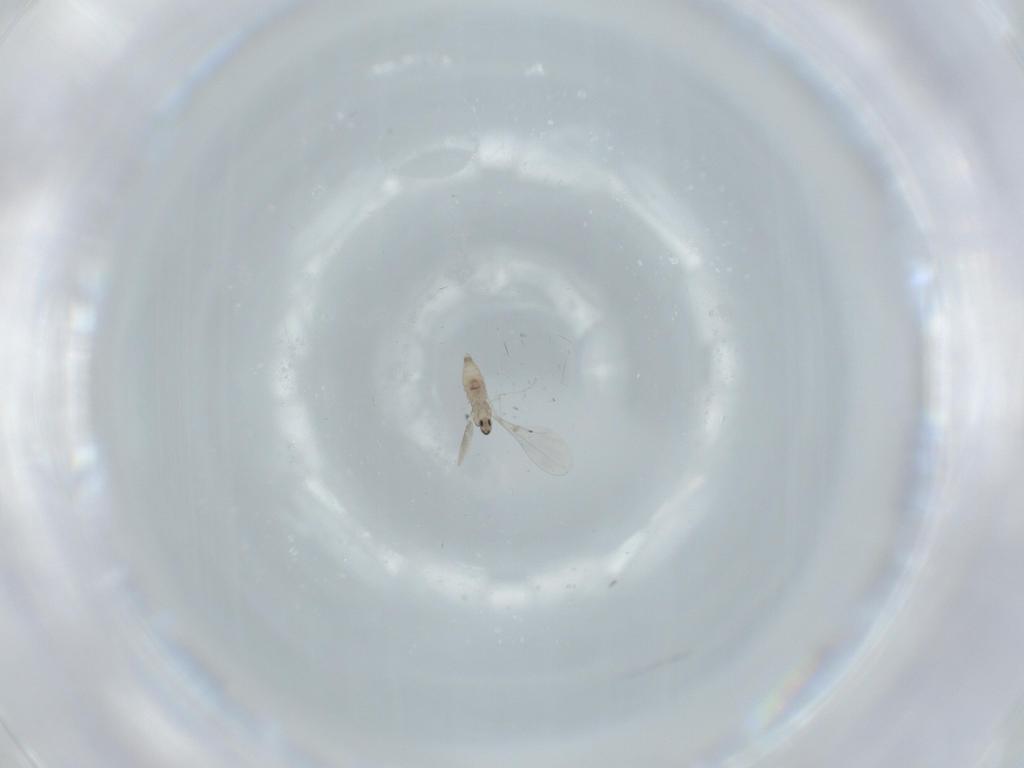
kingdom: Animalia
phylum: Arthropoda
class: Insecta
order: Diptera
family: Cecidomyiidae
